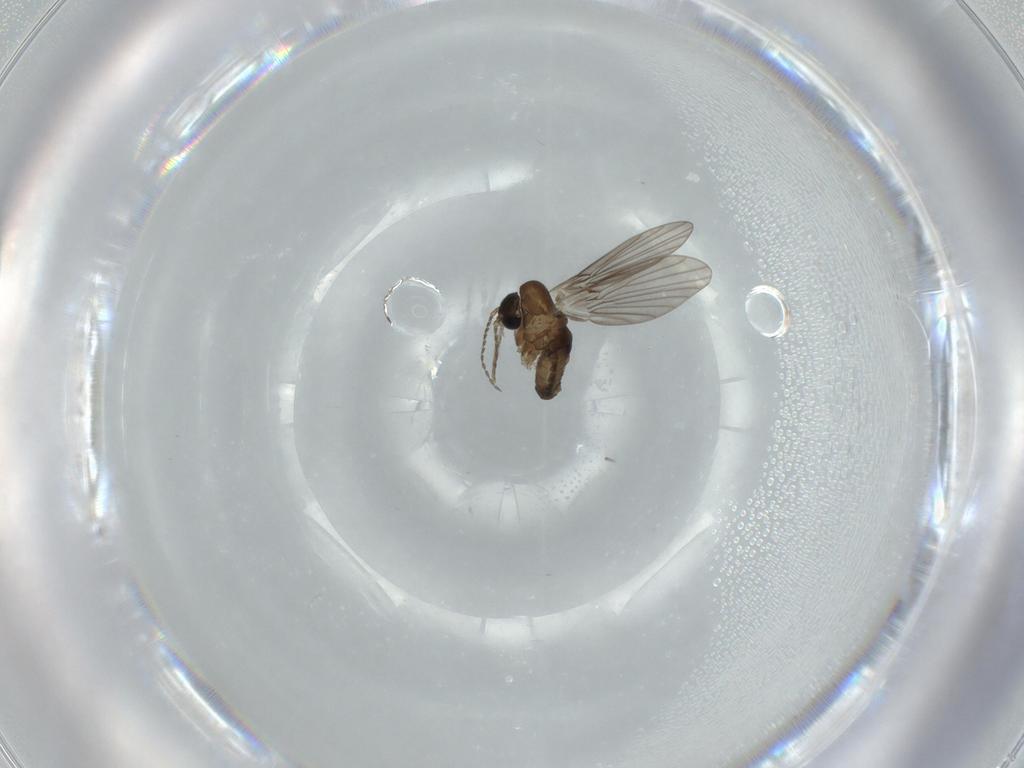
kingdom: Animalia
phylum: Arthropoda
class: Insecta
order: Diptera
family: Psychodidae
